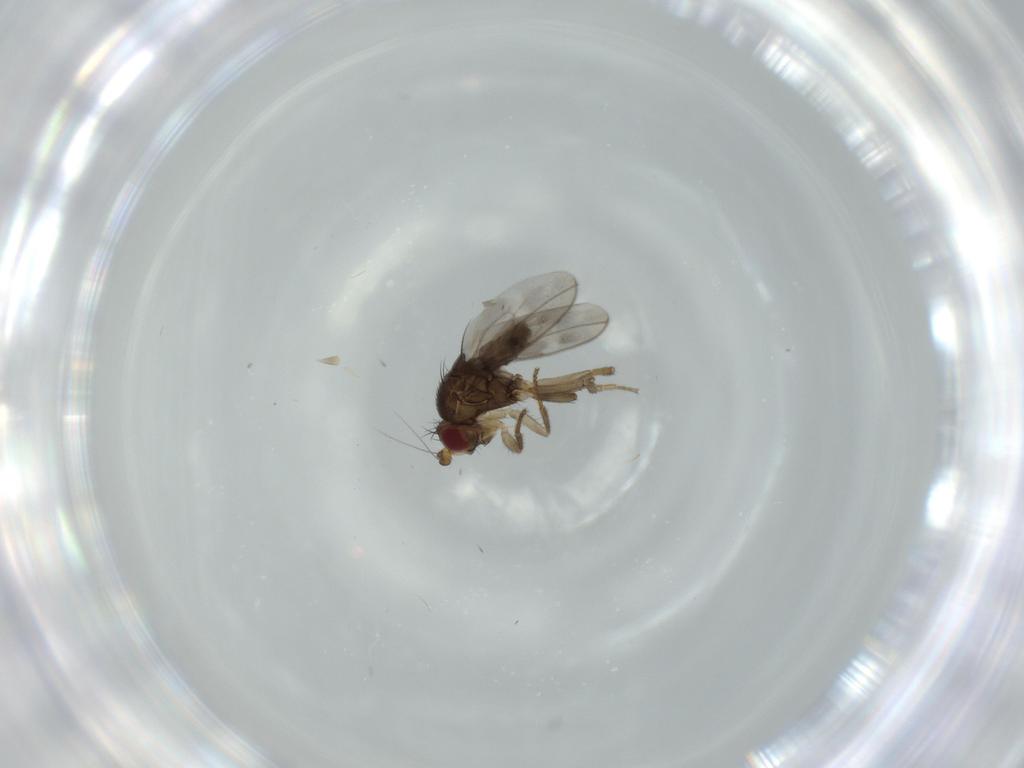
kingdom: Animalia
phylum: Arthropoda
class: Insecta
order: Diptera
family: Sphaeroceridae
